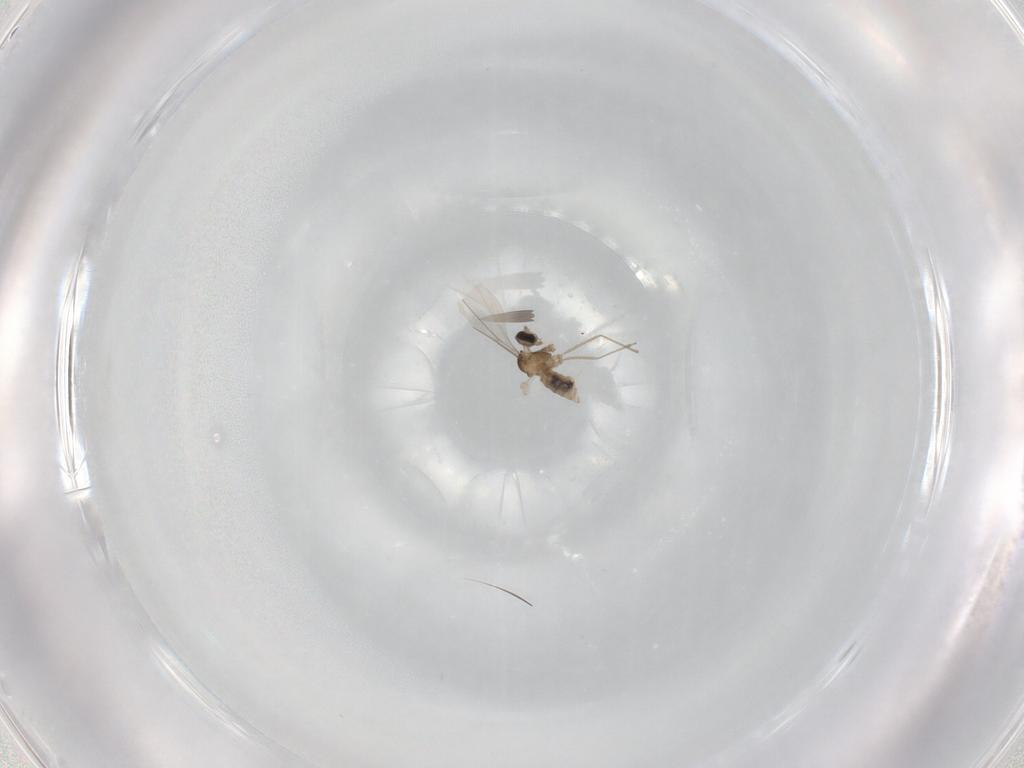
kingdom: Animalia
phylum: Arthropoda
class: Insecta
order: Diptera
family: Cecidomyiidae
